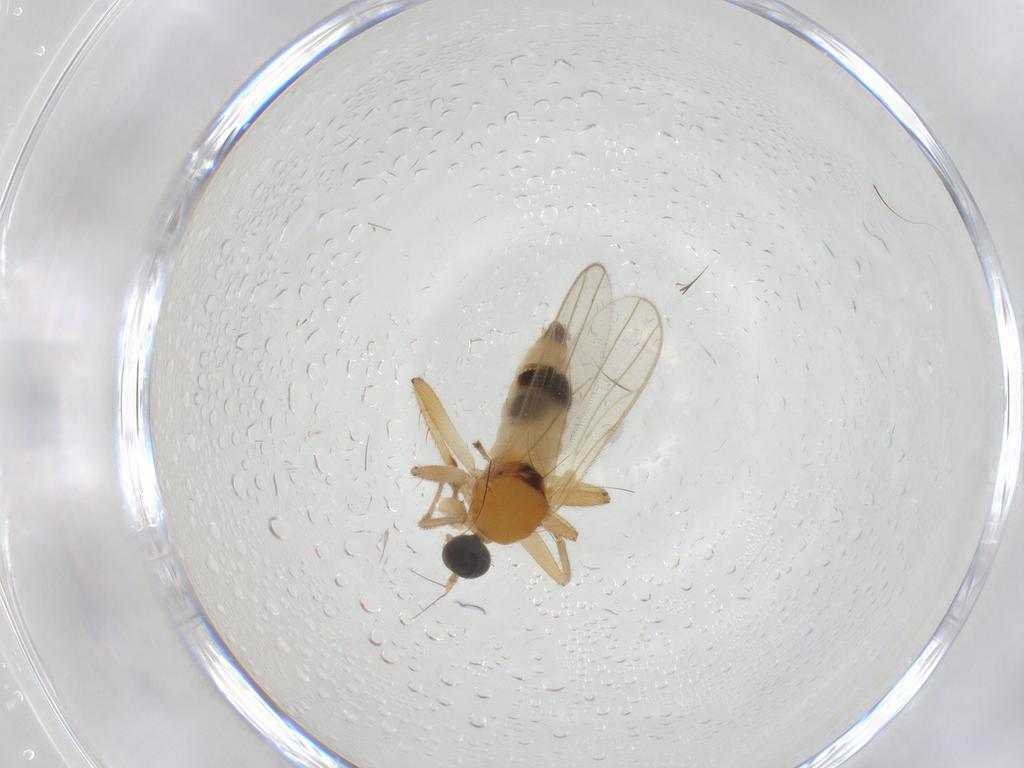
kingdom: Animalia
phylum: Arthropoda
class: Insecta
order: Diptera
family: Hybotidae
